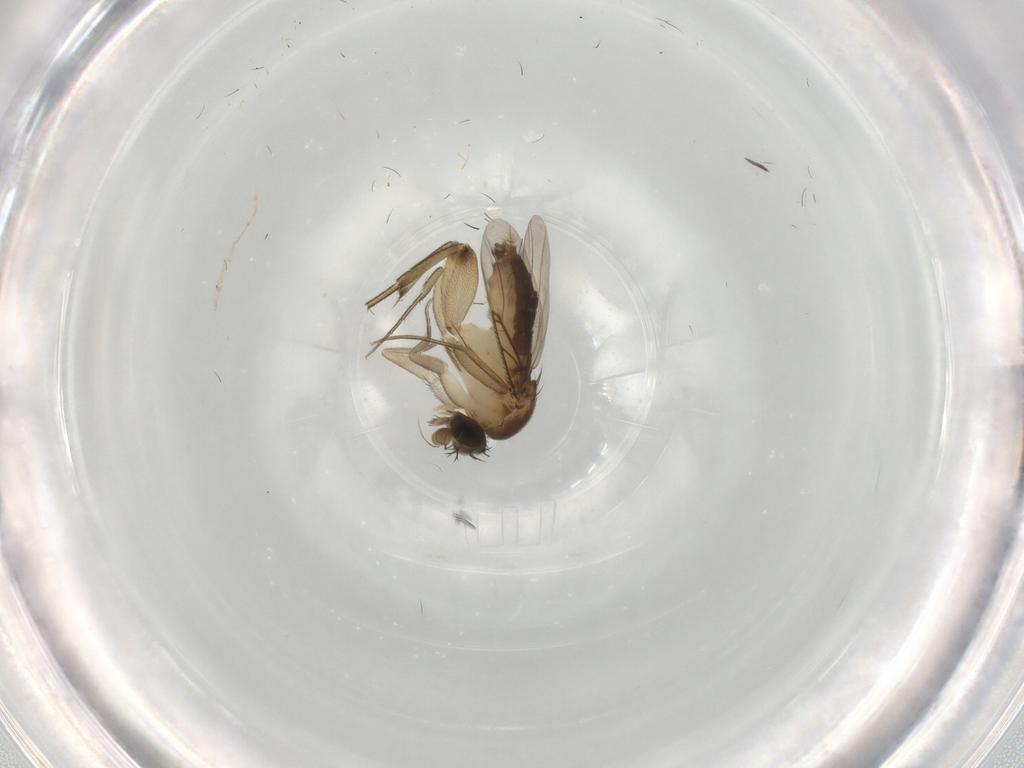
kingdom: Animalia
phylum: Arthropoda
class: Insecta
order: Diptera
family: Phoridae
